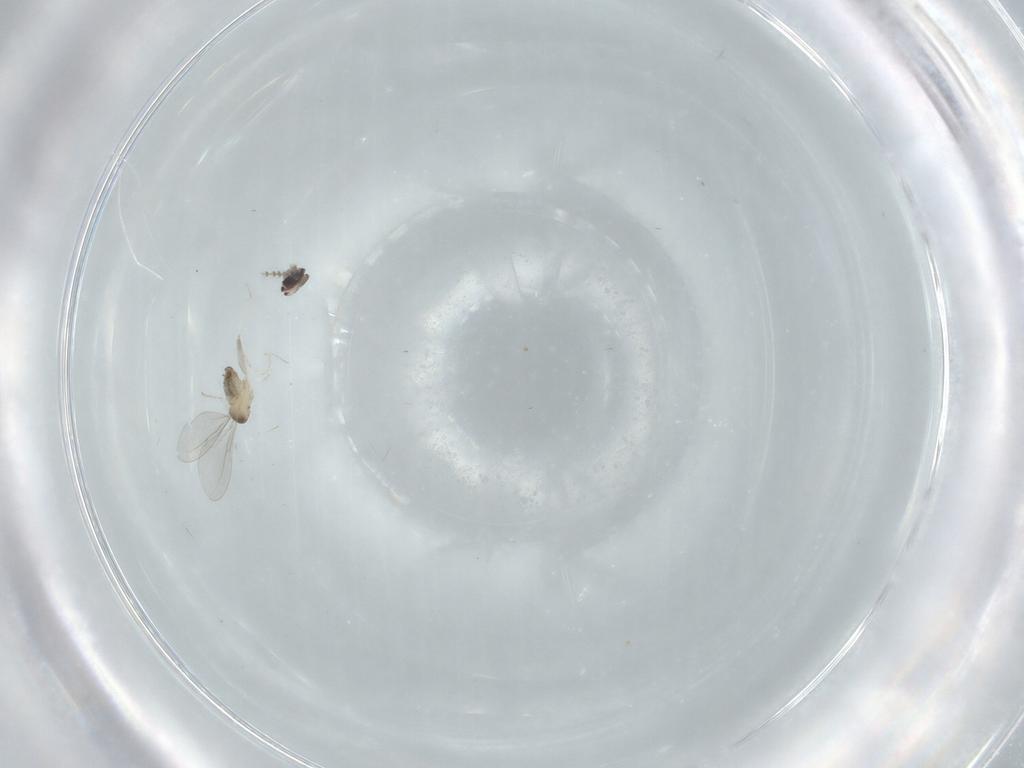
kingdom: Animalia
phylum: Arthropoda
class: Insecta
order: Diptera
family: Cecidomyiidae
